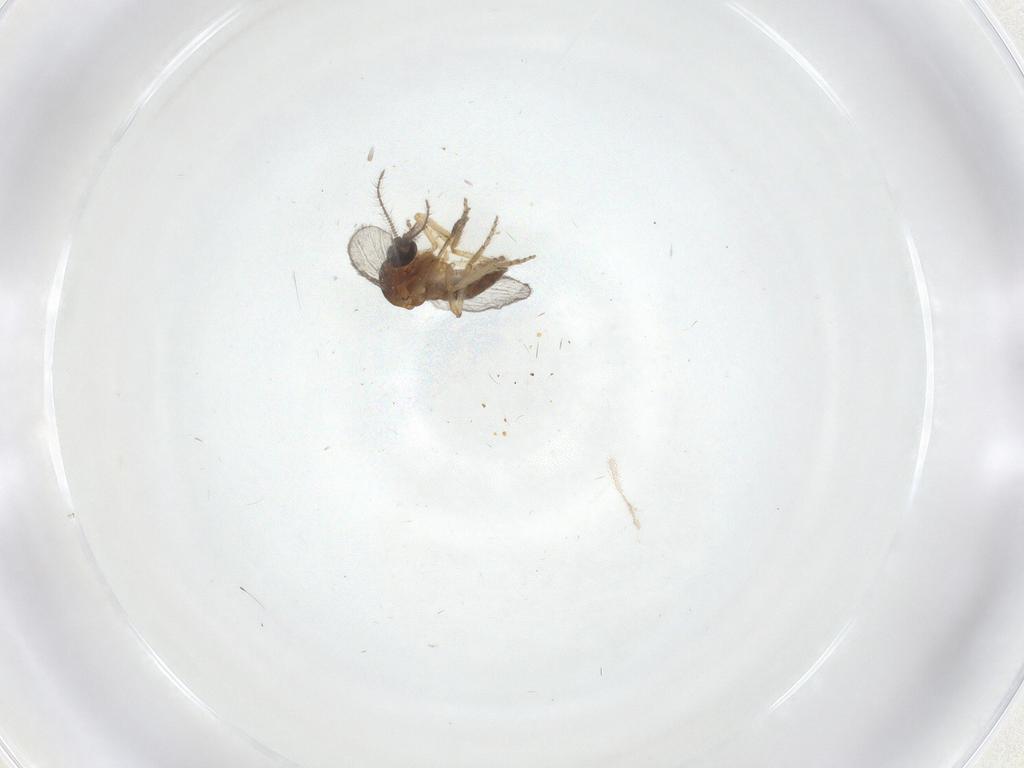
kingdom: Animalia
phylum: Arthropoda
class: Insecta
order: Diptera
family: Ceratopogonidae
